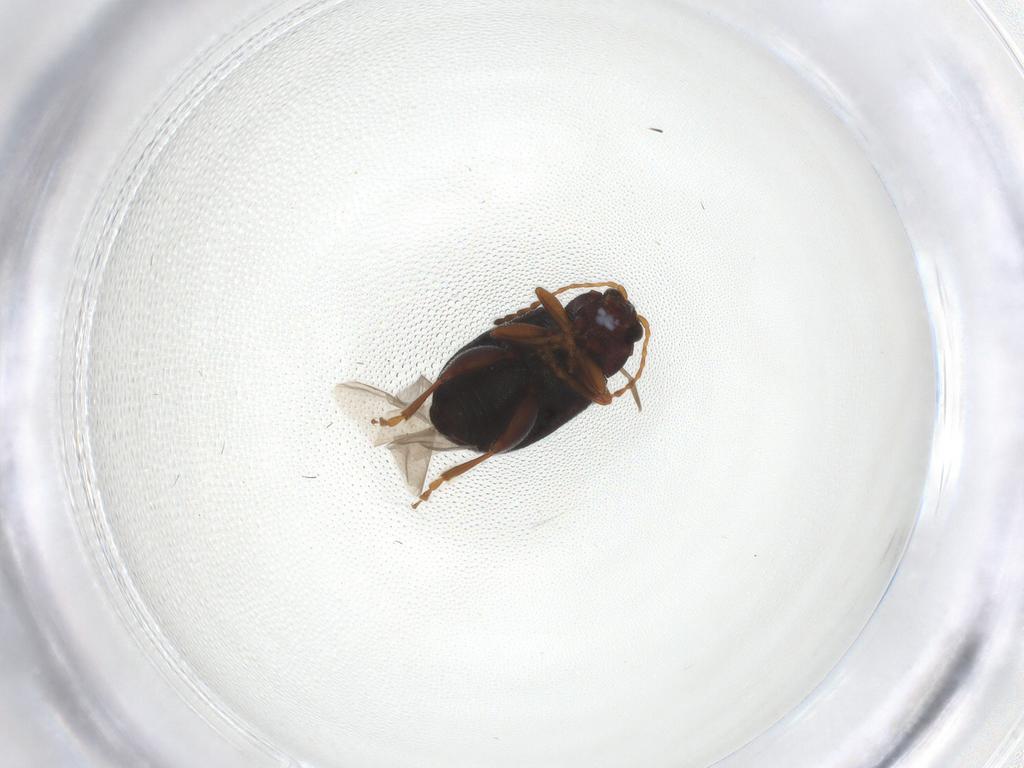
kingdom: Animalia
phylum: Arthropoda
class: Insecta
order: Coleoptera
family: Chrysomelidae
